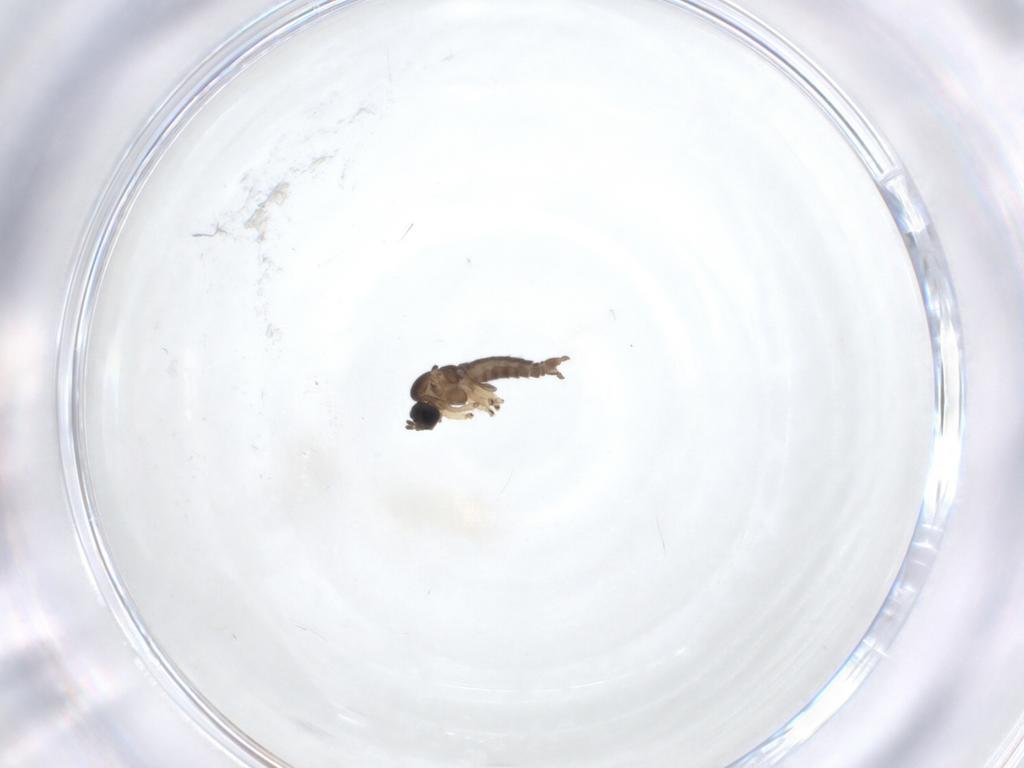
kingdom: Animalia
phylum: Arthropoda
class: Insecta
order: Diptera
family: Sciaridae
